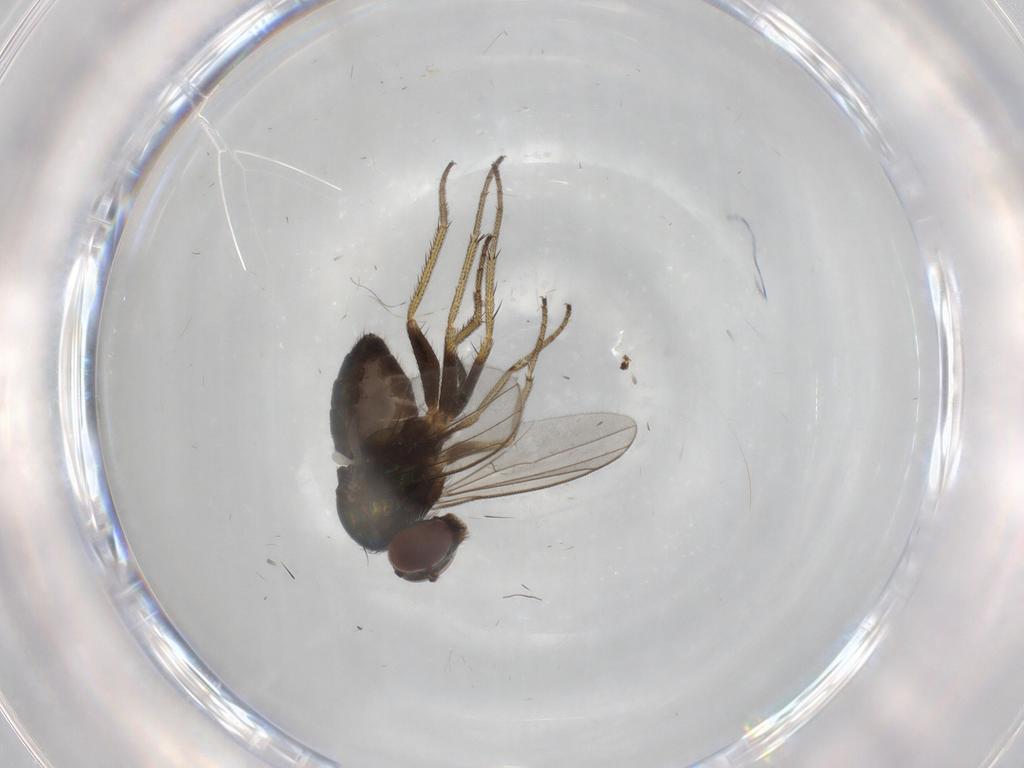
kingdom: Animalia
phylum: Arthropoda
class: Insecta
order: Diptera
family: Dolichopodidae
